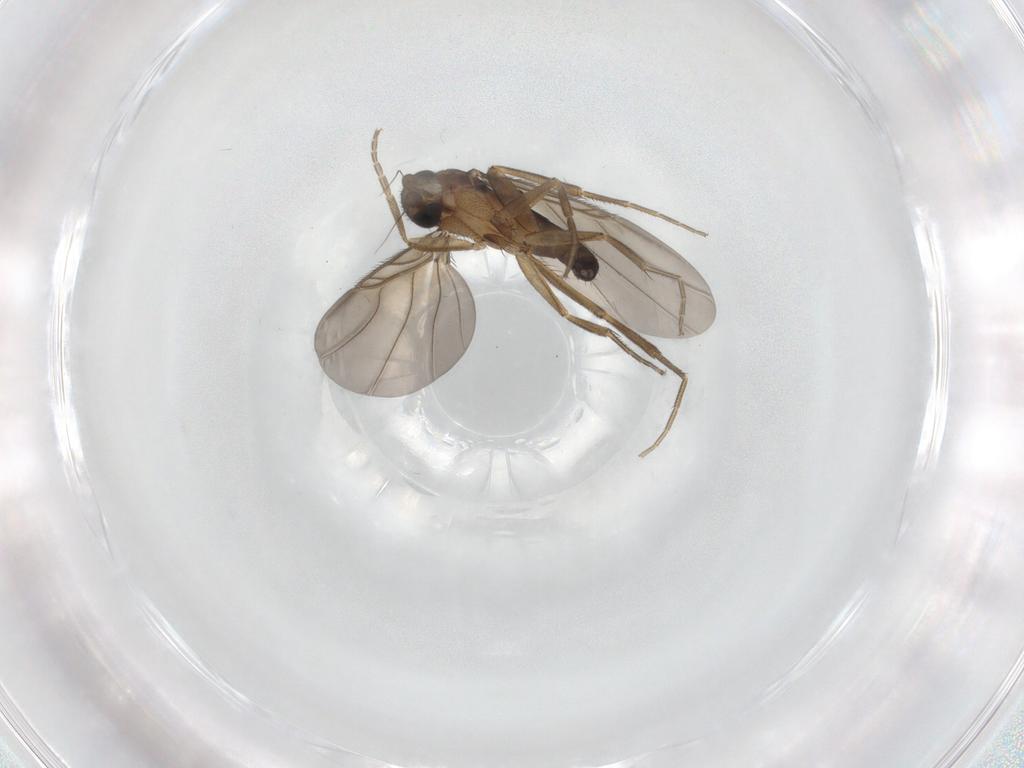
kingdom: Animalia
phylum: Arthropoda
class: Insecta
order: Diptera
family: Phoridae
